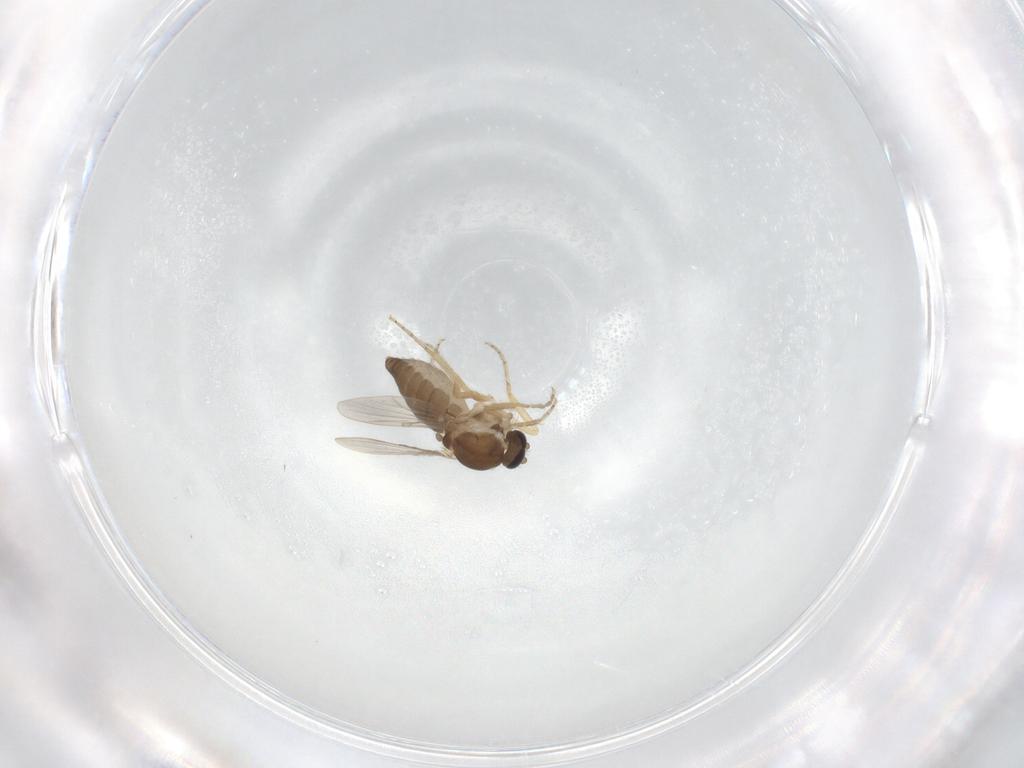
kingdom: Animalia
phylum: Arthropoda
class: Insecta
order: Diptera
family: Ceratopogonidae
